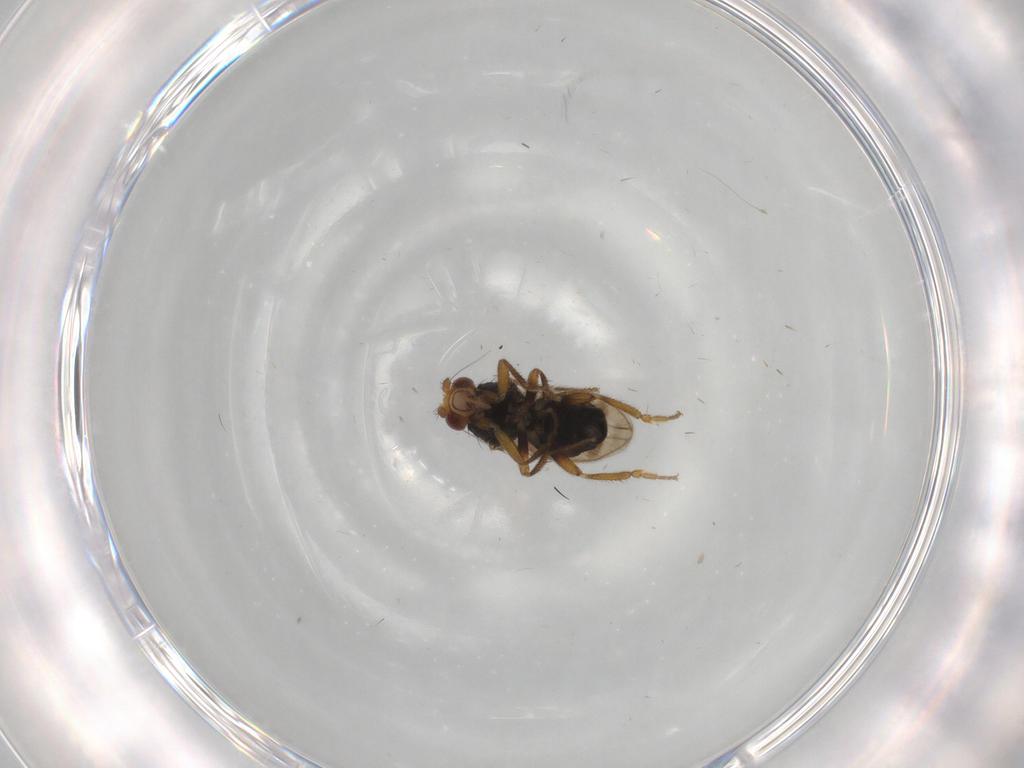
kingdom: Animalia
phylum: Arthropoda
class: Insecta
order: Diptera
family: Sphaeroceridae
